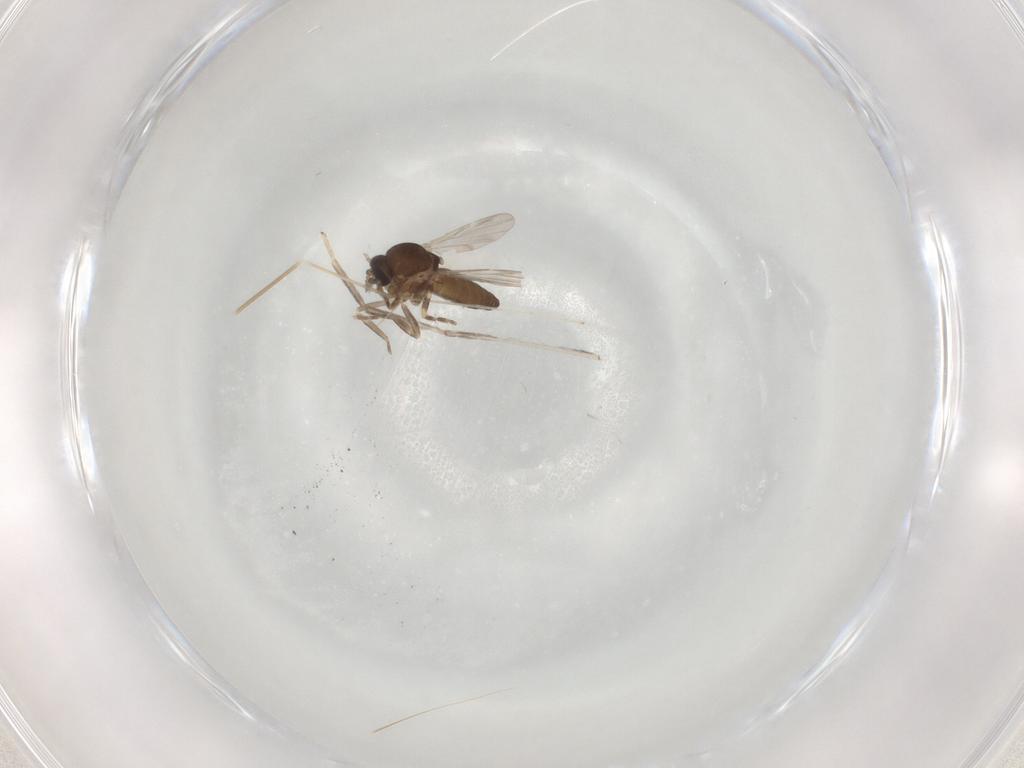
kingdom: Animalia
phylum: Arthropoda
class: Insecta
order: Diptera
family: Ceratopogonidae
